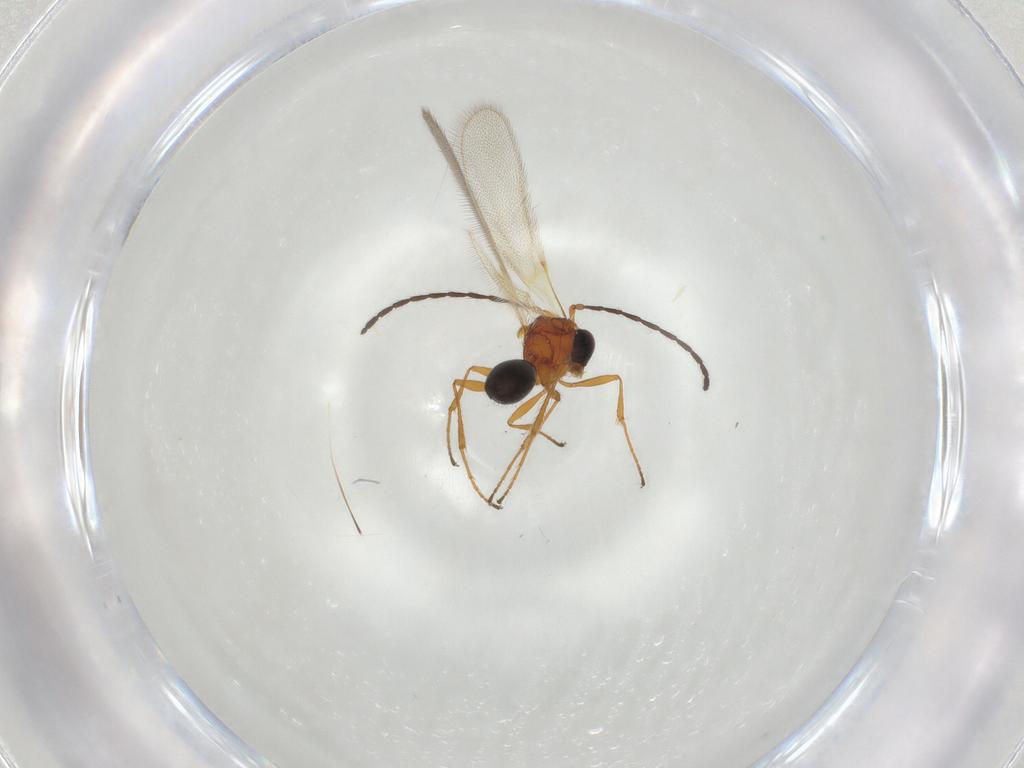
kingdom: Animalia
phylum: Arthropoda
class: Insecta
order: Hymenoptera
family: Diapriidae
